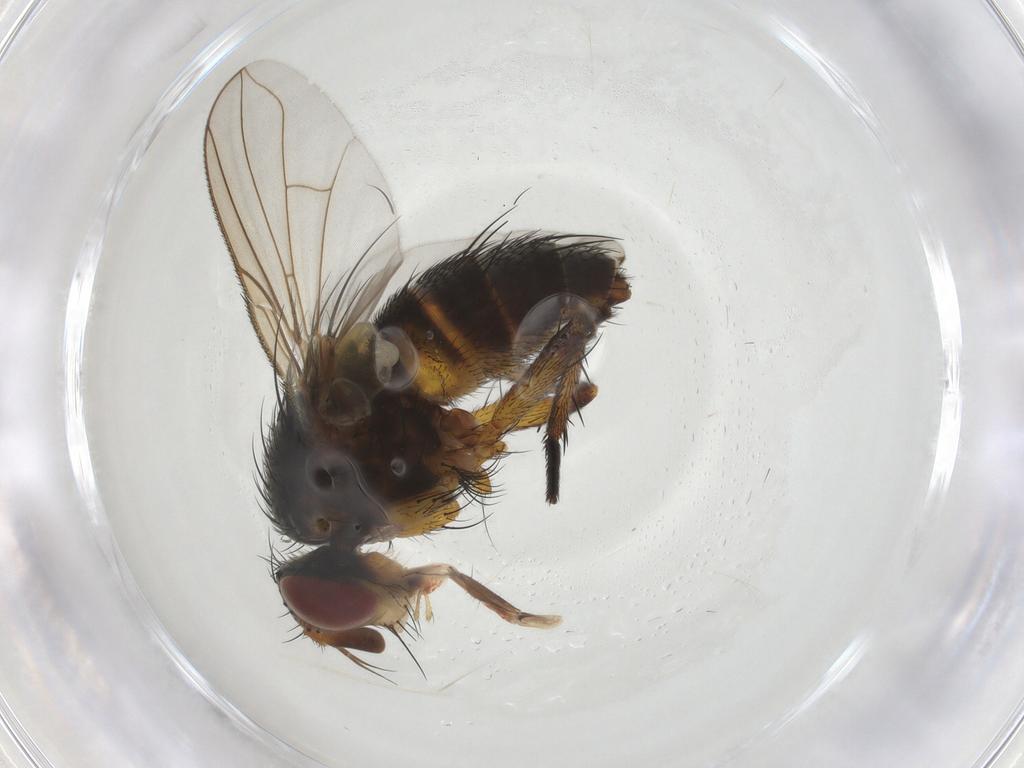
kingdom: Animalia
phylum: Arthropoda
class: Insecta
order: Diptera
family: Tachinidae
